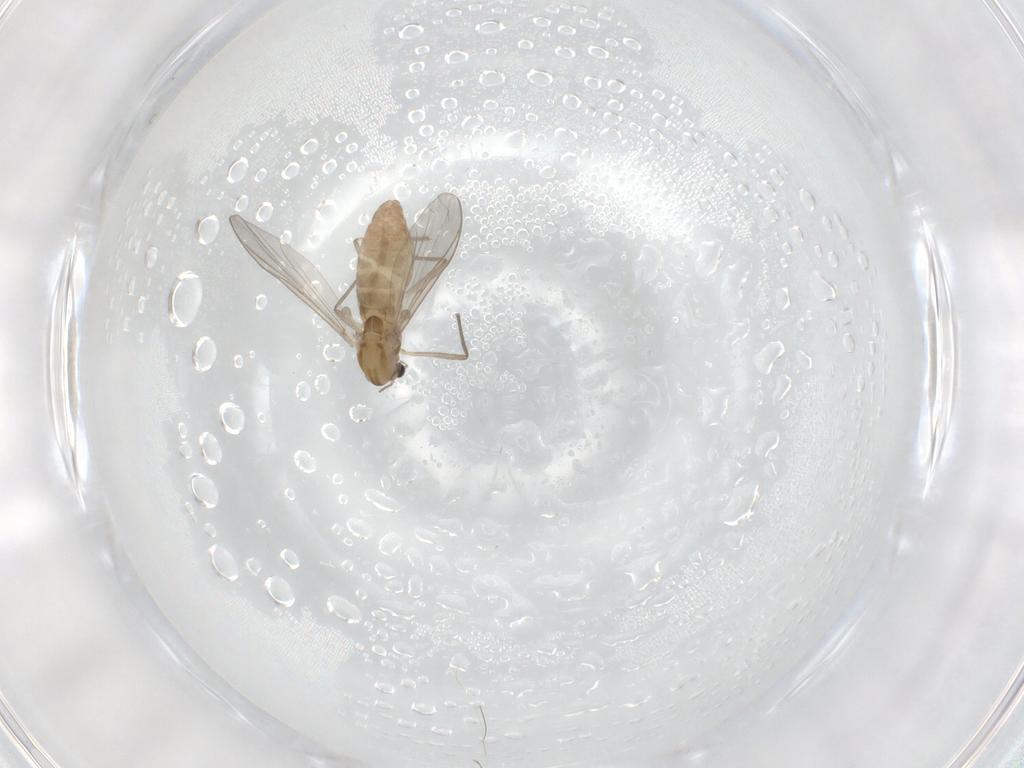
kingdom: Animalia
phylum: Arthropoda
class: Insecta
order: Diptera
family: Chironomidae
